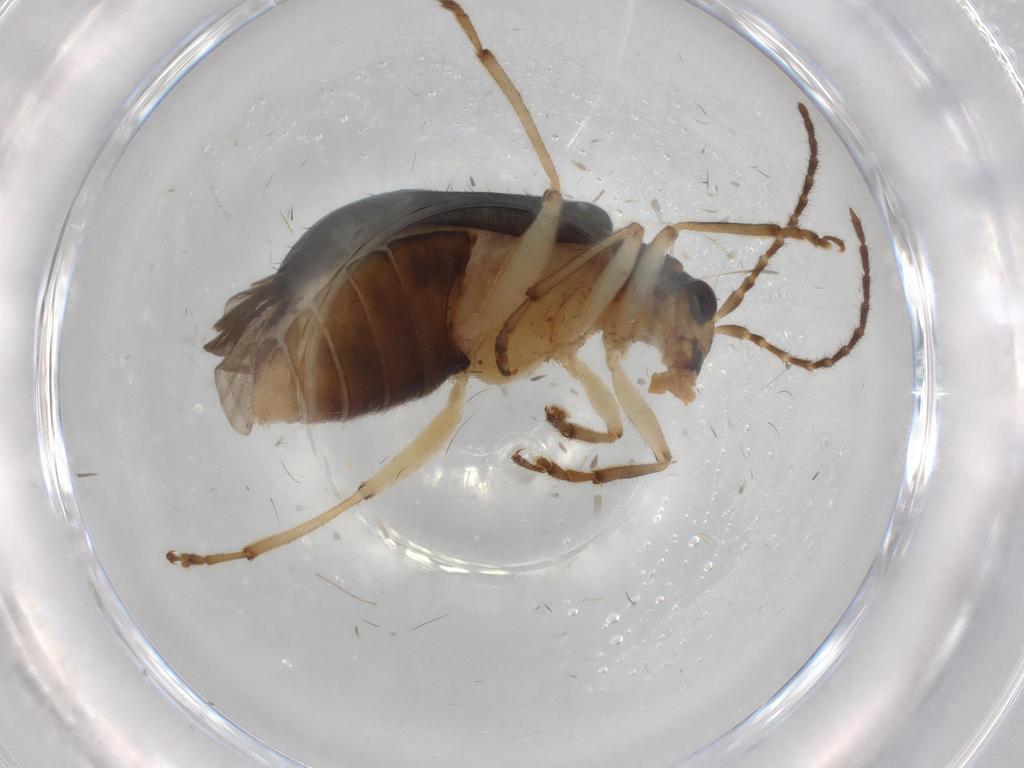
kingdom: Animalia
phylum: Arthropoda
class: Insecta
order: Coleoptera
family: Chrysomelidae
